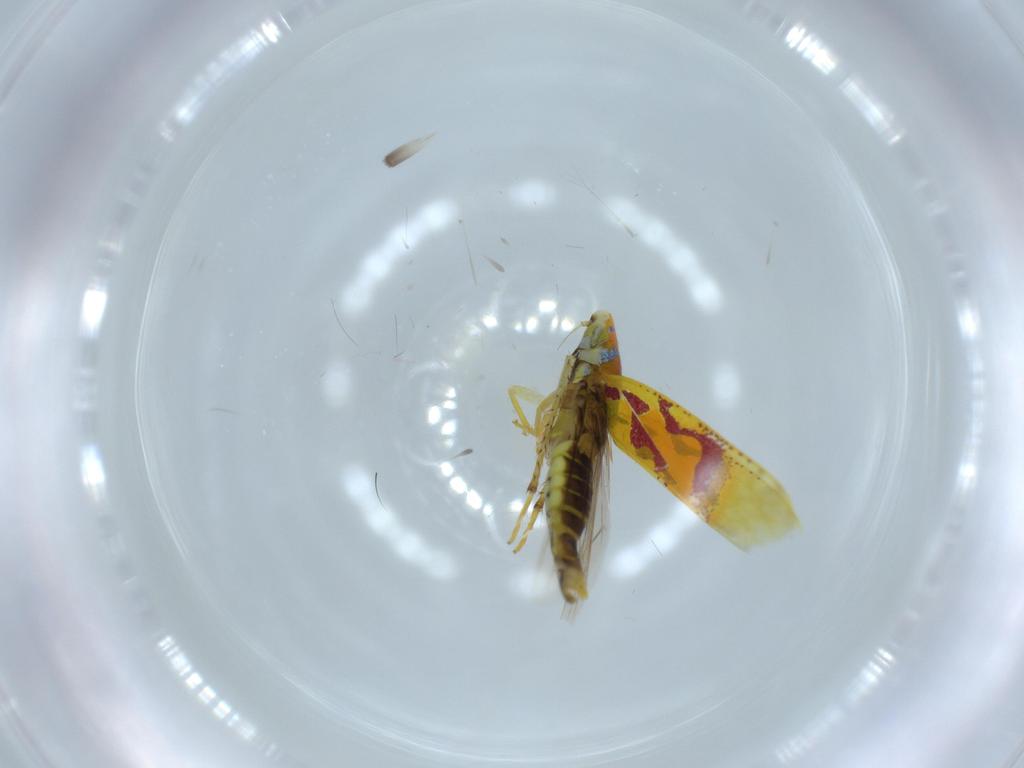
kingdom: Animalia
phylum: Arthropoda
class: Insecta
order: Hemiptera
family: Cicadellidae
